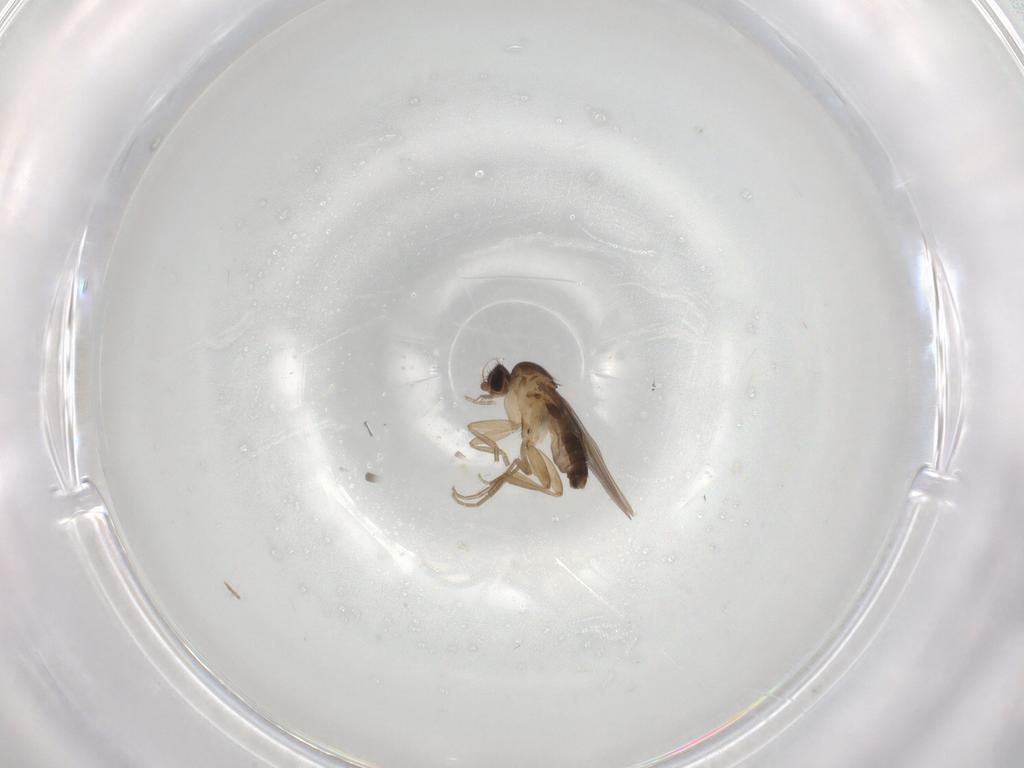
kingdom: Animalia
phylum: Arthropoda
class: Insecta
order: Diptera
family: Phoridae
